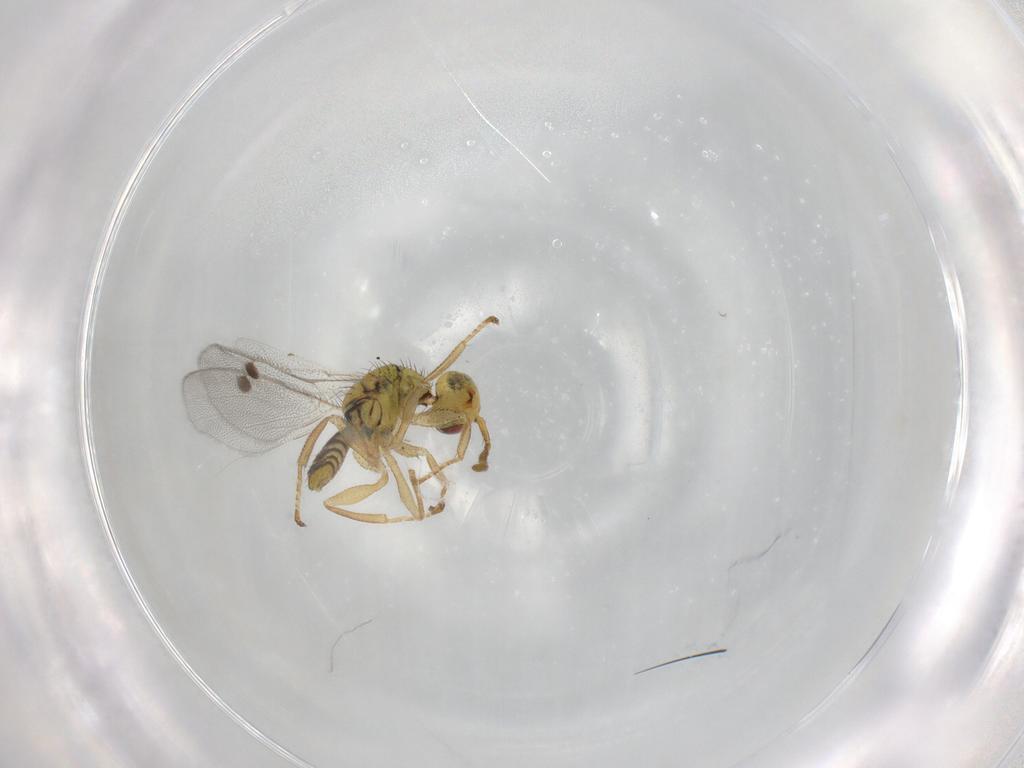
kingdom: Animalia
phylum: Arthropoda
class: Insecta
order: Hymenoptera
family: Megastigmidae
